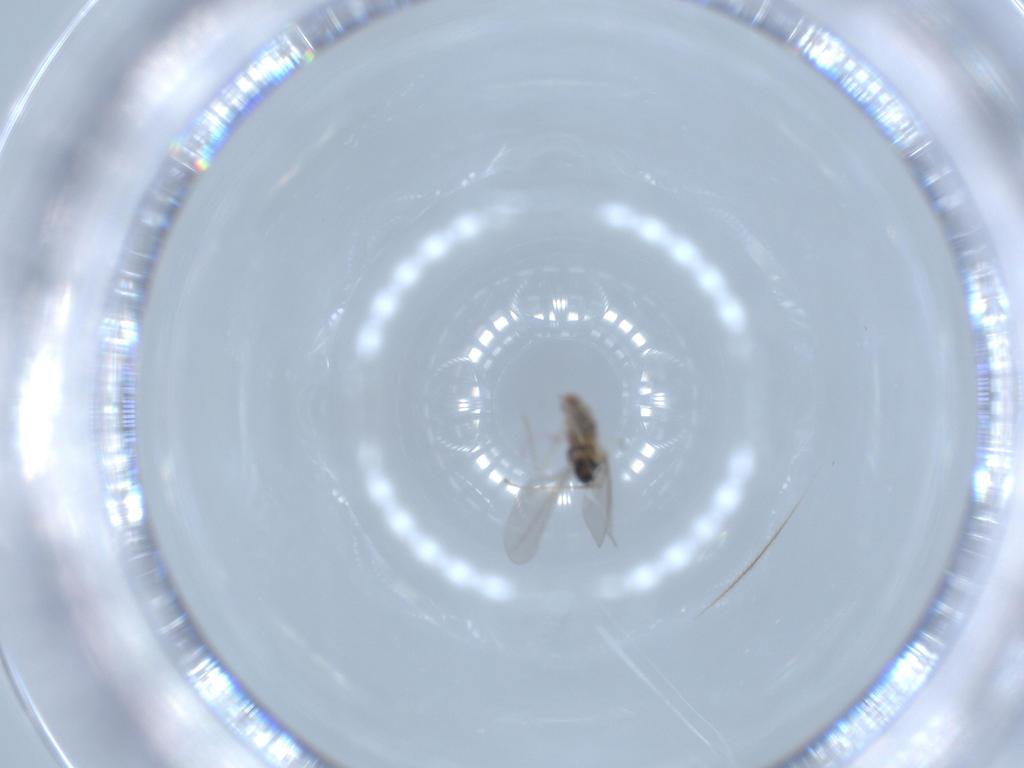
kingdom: Animalia
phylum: Arthropoda
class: Insecta
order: Diptera
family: Cecidomyiidae
